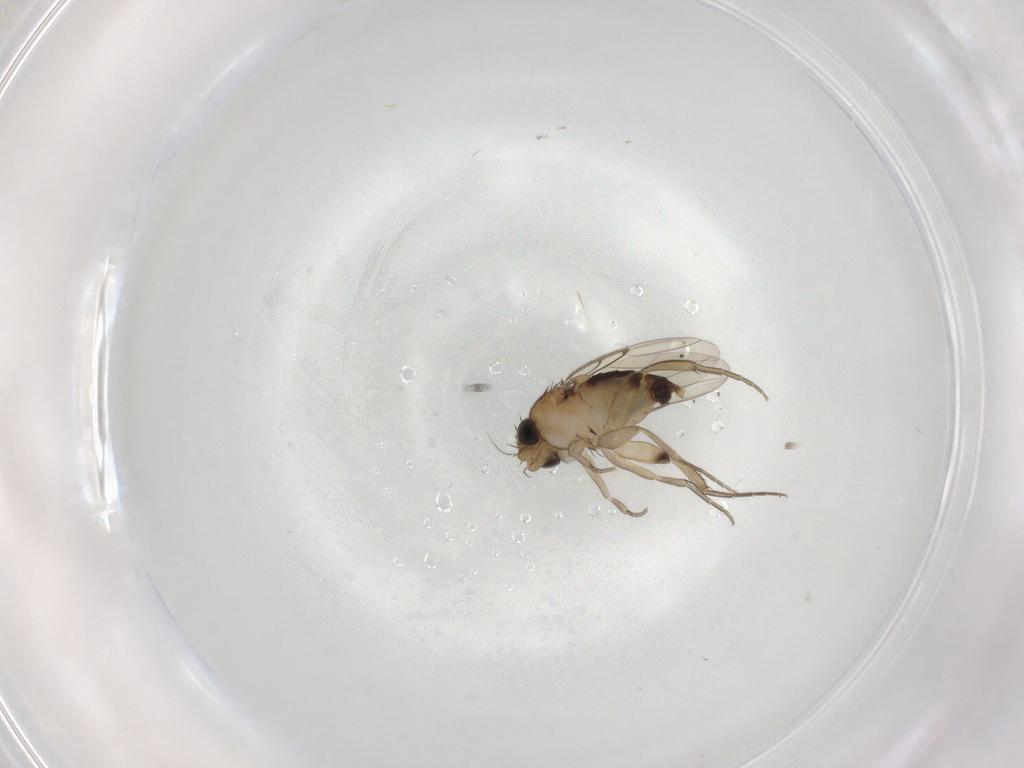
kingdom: Animalia
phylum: Arthropoda
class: Insecta
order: Diptera
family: Phoridae
